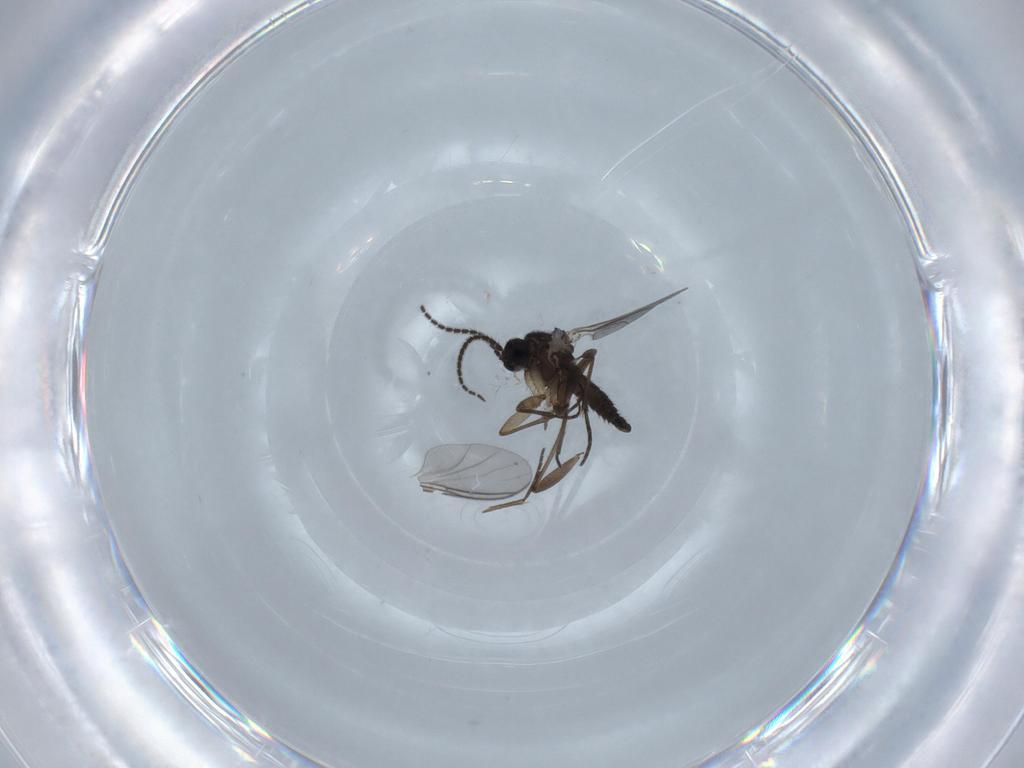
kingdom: Animalia
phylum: Arthropoda
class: Insecta
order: Diptera
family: Sciaridae
